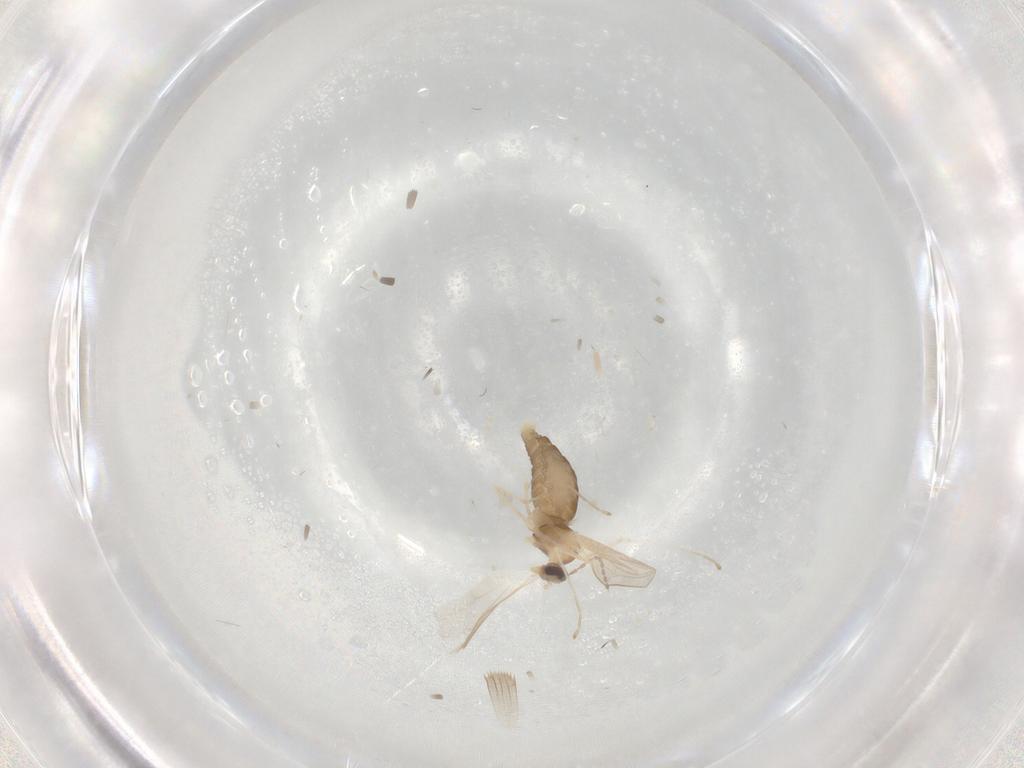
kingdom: Animalia
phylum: Arthropoda
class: Insecta
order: Diptera
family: Cecidomyiidae
